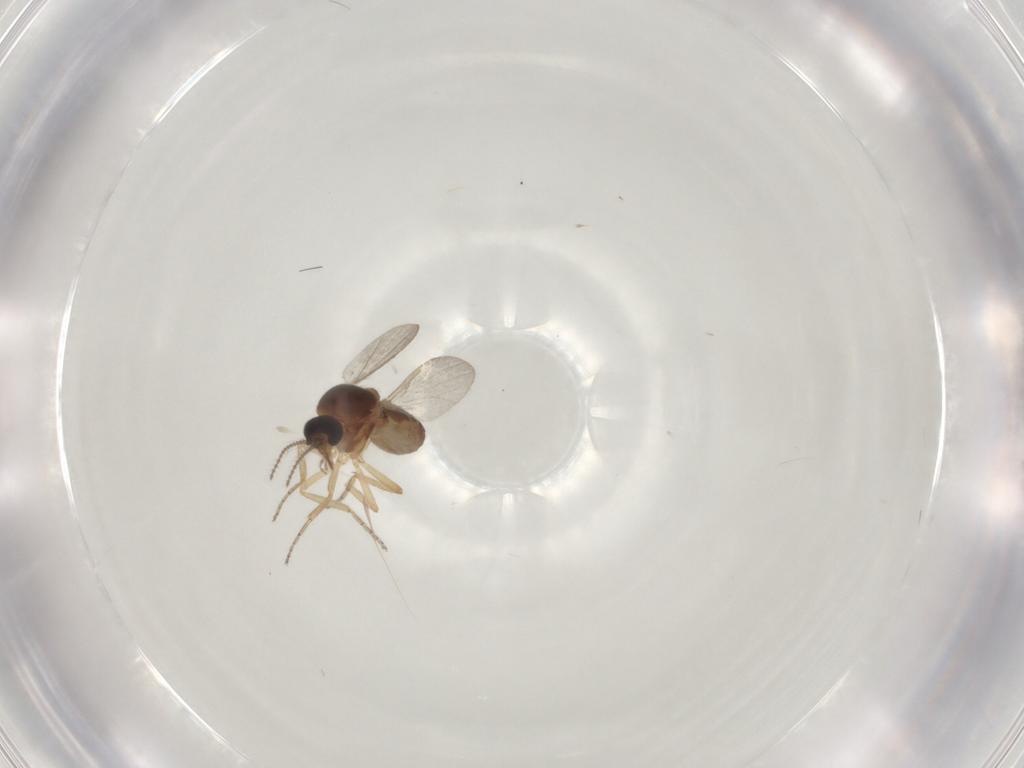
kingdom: Animalia
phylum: Arthropoda
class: Insecta
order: Diptera
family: Ceratopogonidae
